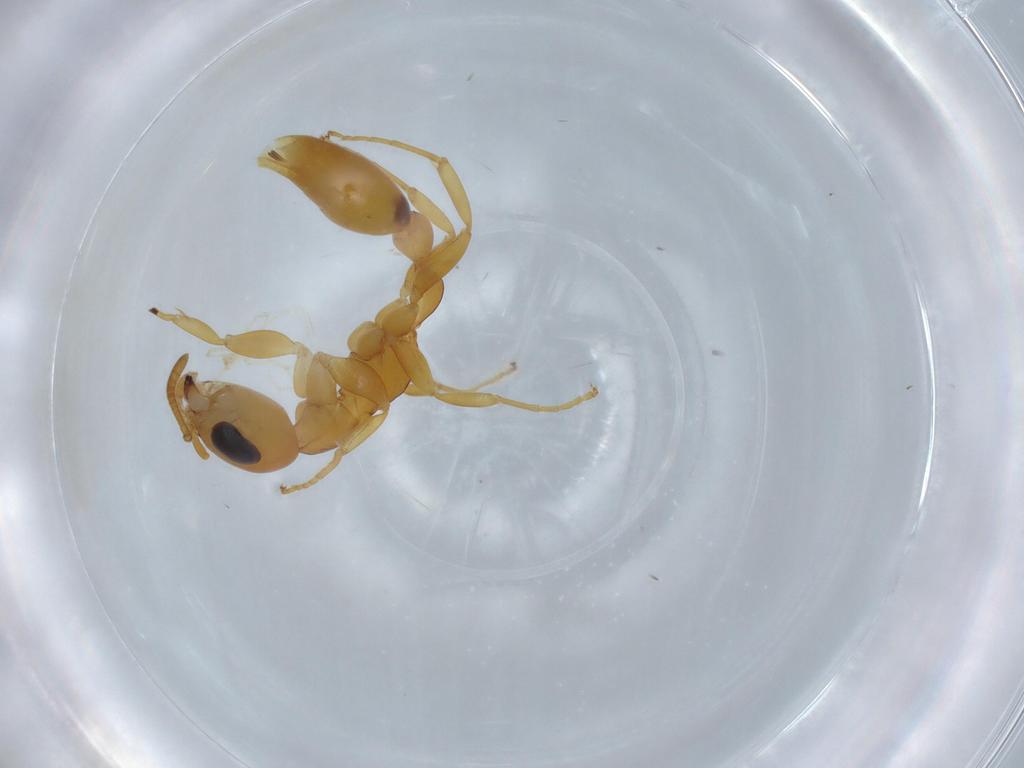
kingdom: Animalia
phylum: Arthropoda
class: Insecta
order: Hymenoptera
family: Formicidae
